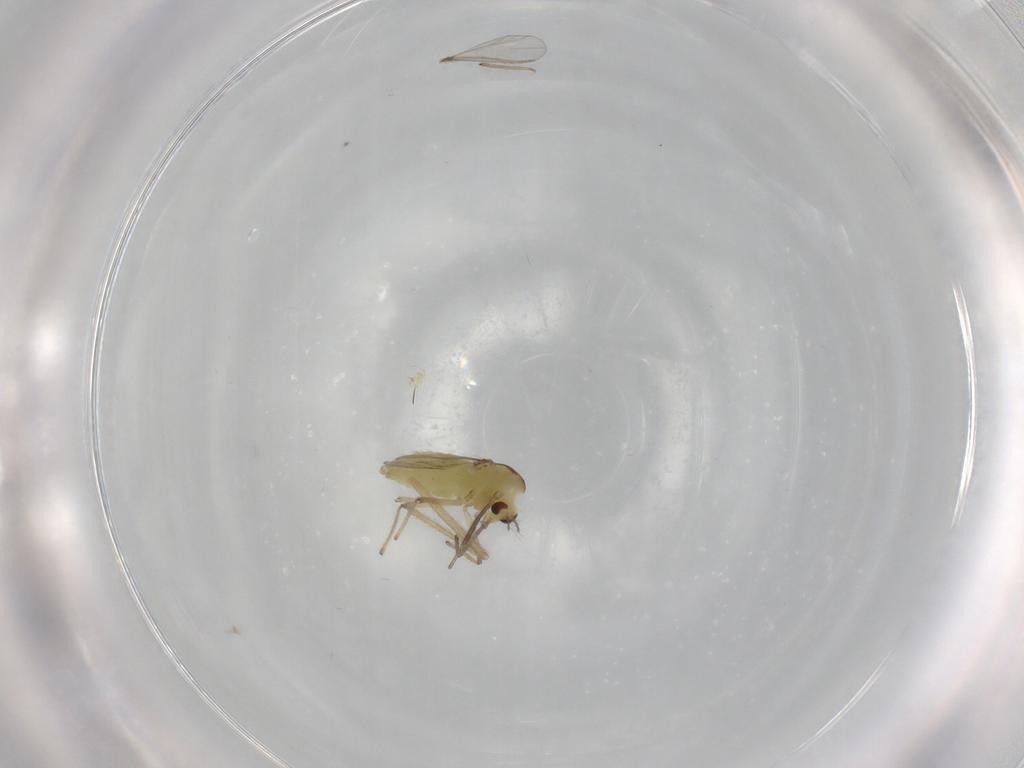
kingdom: Animalia
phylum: Arthropoda
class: Insecta
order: Diptera
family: Chironomidae
